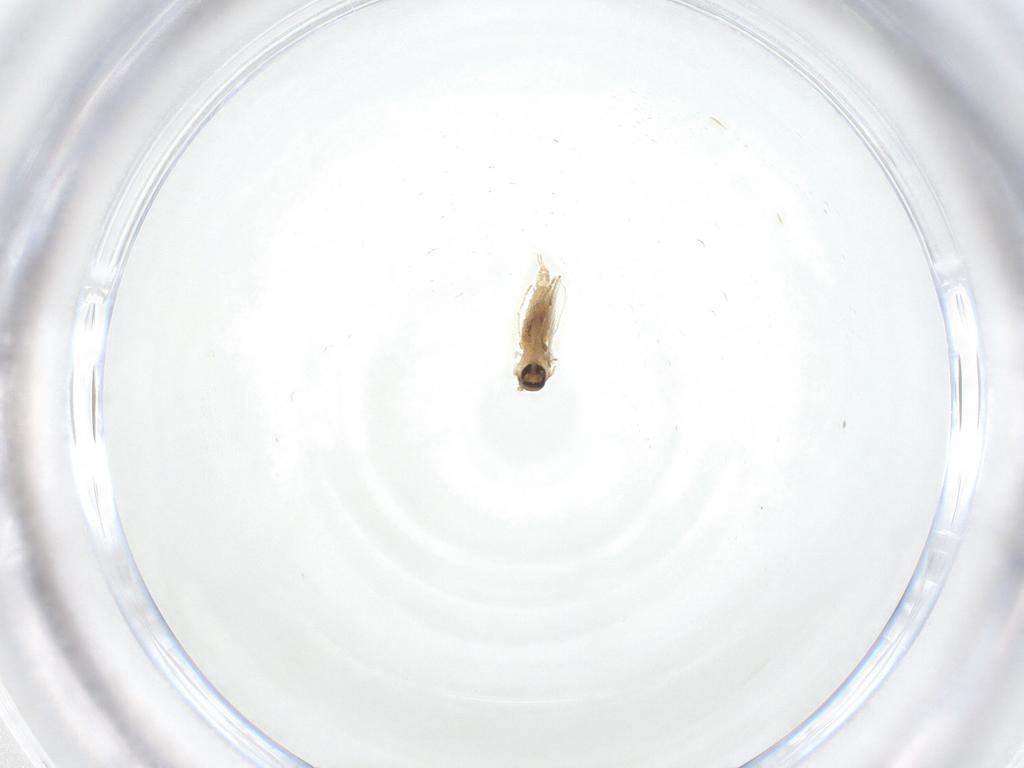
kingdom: Animalia
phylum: Arthropoda
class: Insecta
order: Diptera
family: Psychodidae
